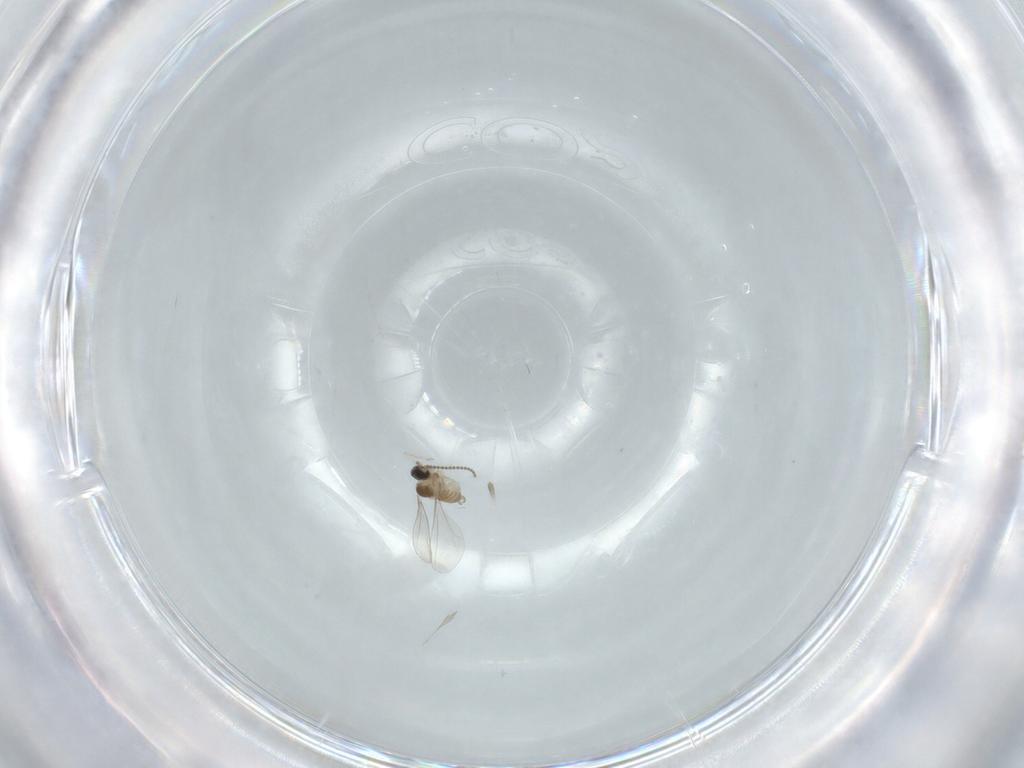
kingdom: Animalia
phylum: Arthropoda
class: Insecta
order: Diptera
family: Cecidomyiidae
